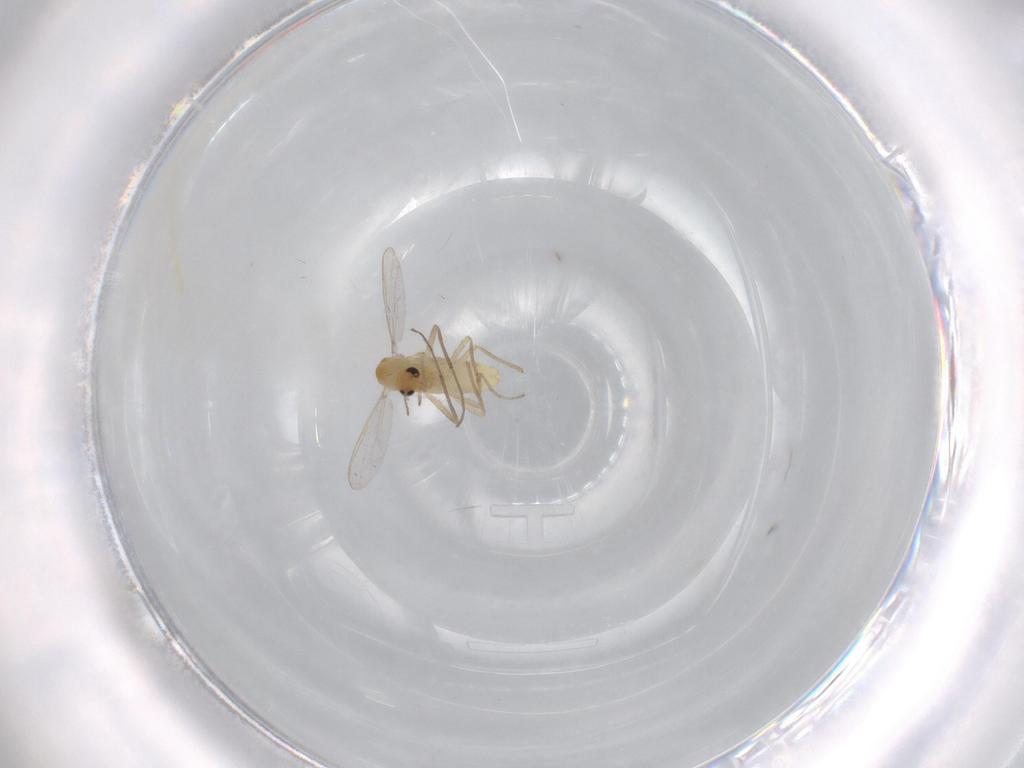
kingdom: Animalia
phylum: Arthropoda
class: Insecta
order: Diptera
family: Chironomidae
